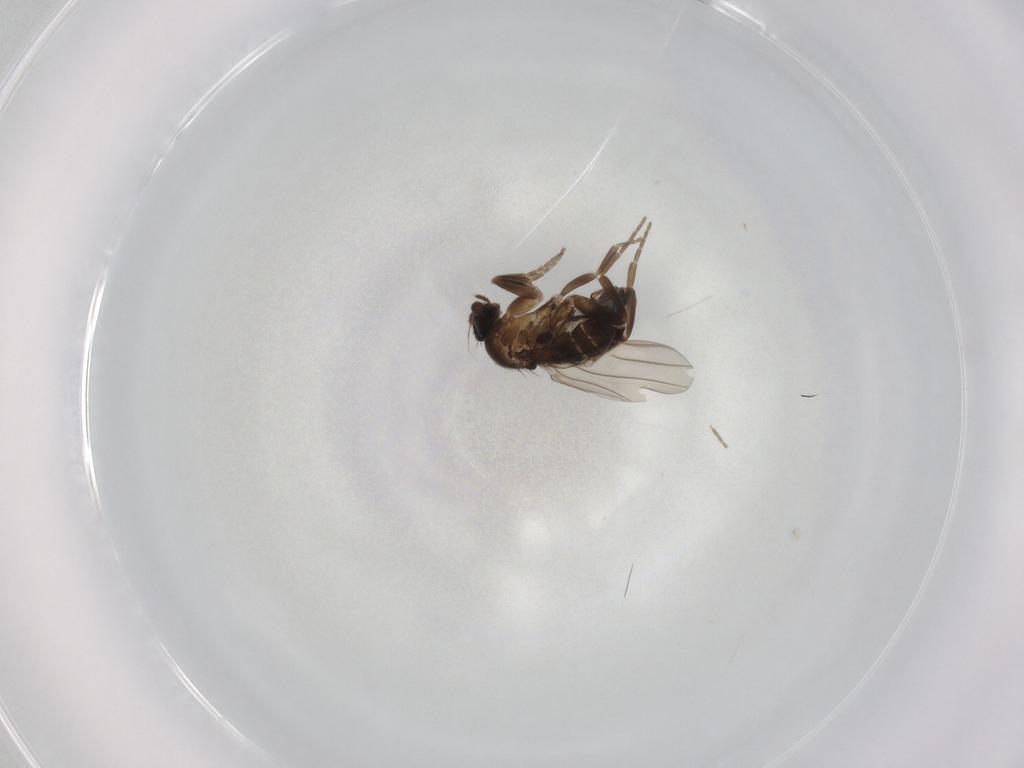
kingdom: Animalia
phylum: Arthropoda
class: Insecta
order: Diptera
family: Phoridae
